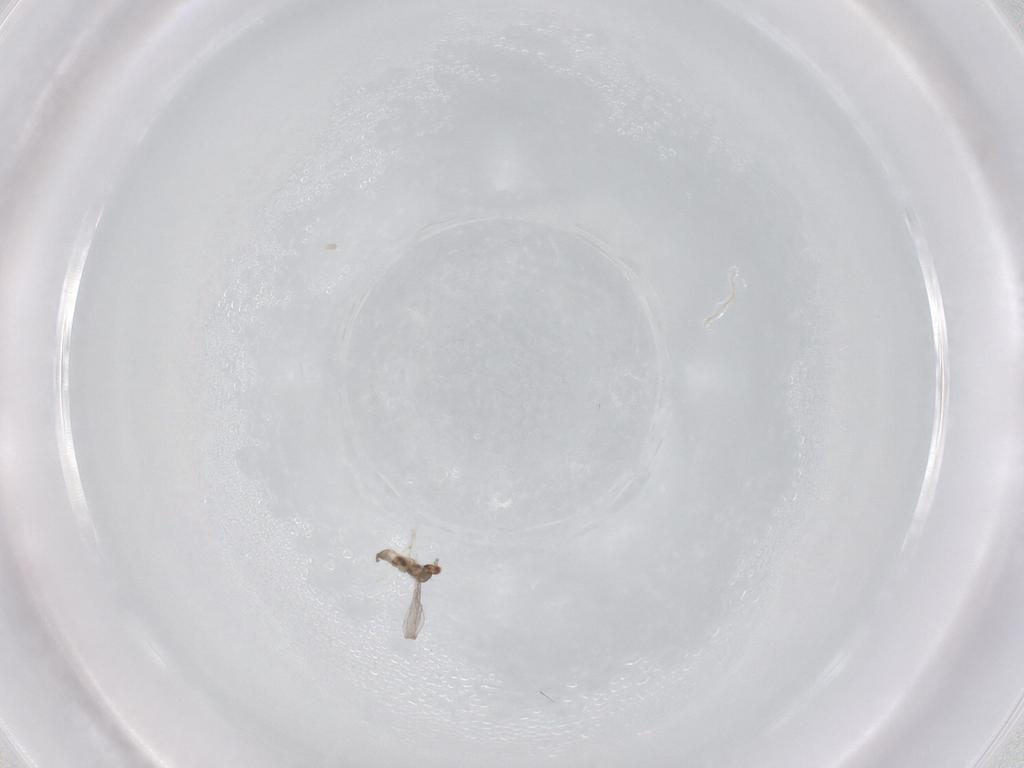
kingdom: Animalia
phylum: Arthropoda
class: Insecta
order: Diptera
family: Cecidomyiidae
